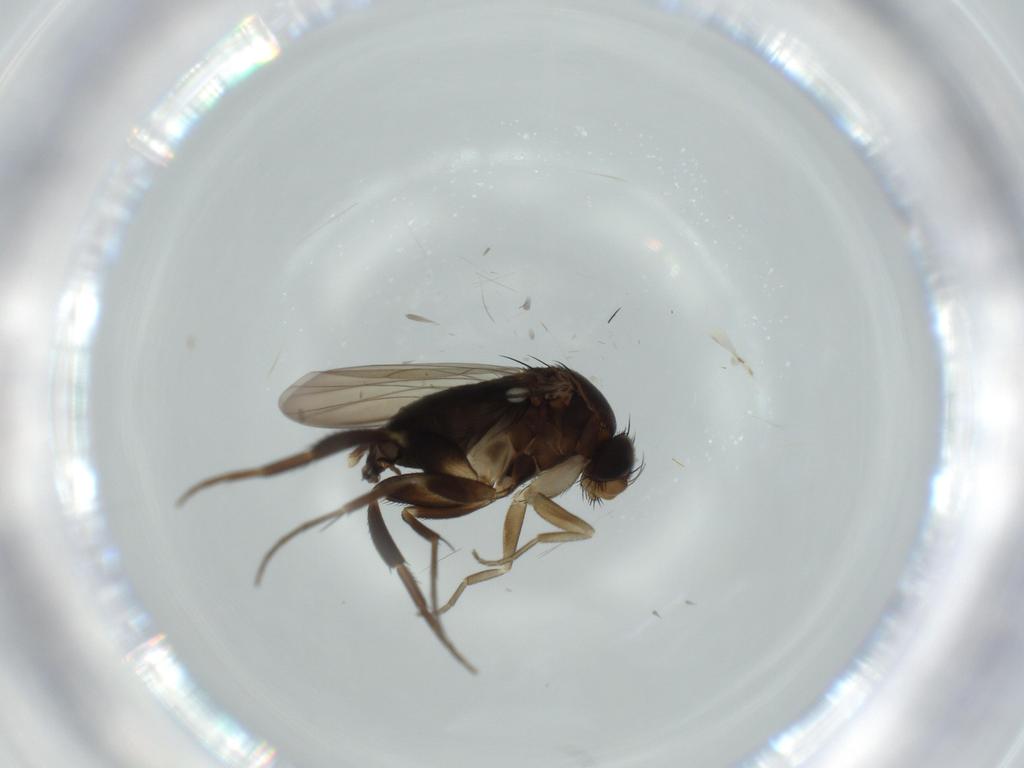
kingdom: Animalia
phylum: Arthropoda
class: Insecta
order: Diptera
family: Phoridae
